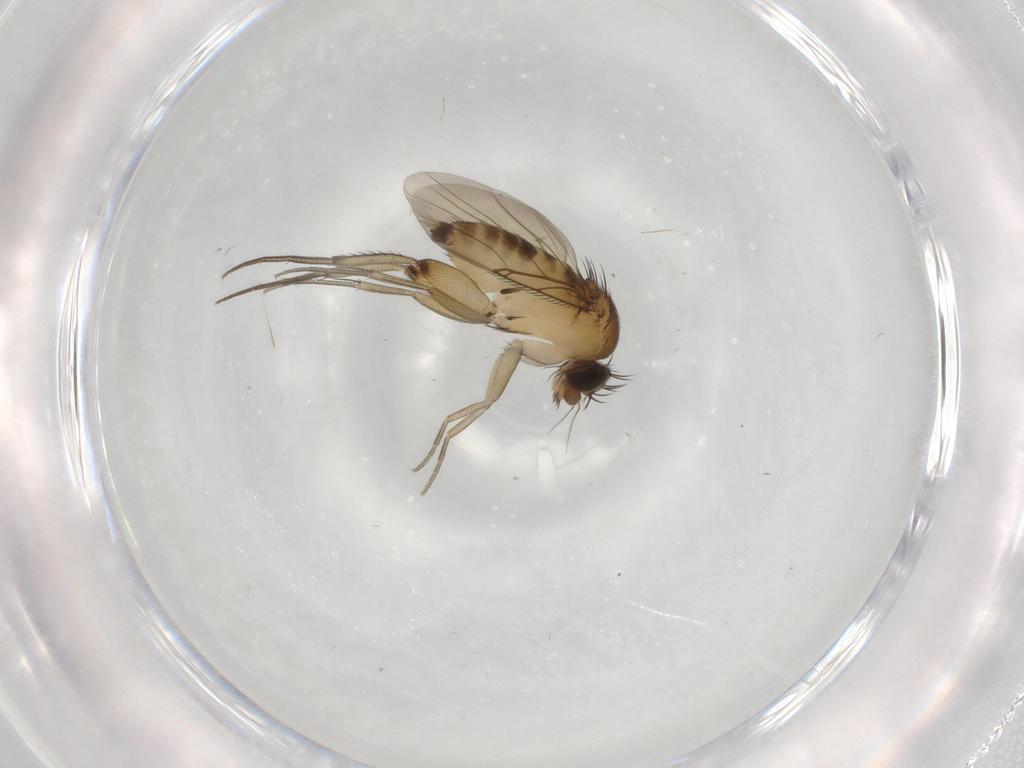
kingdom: Animalia
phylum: Arthropoda
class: Insecta
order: Diptera
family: Phoridae
